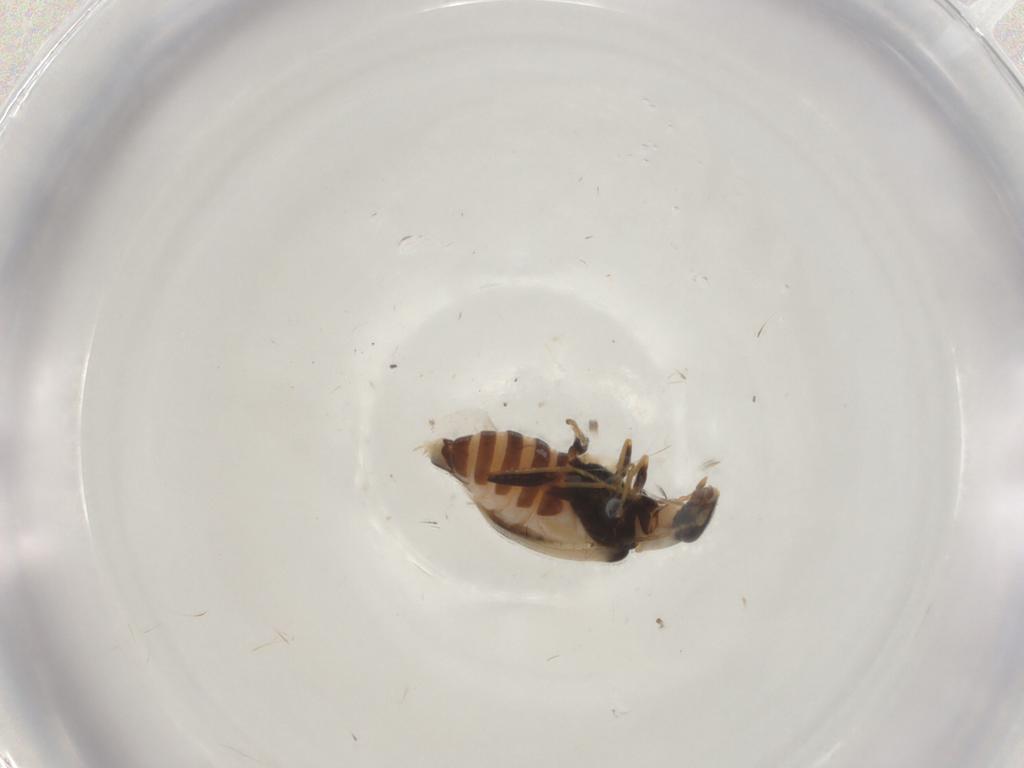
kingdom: Animalia
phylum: Arthropoda
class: Insecta
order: Coleoptera
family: Melyridae
